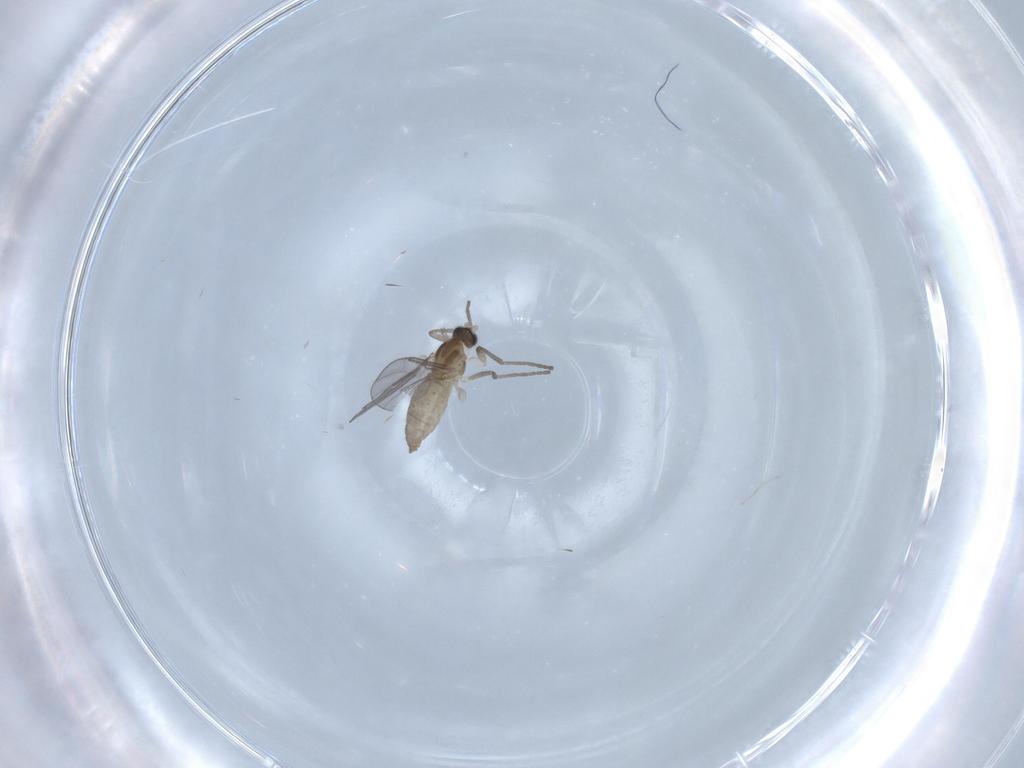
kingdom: Animalia
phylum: Arthropoda
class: Insecta
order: Diptera
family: Cecidomyiidae
